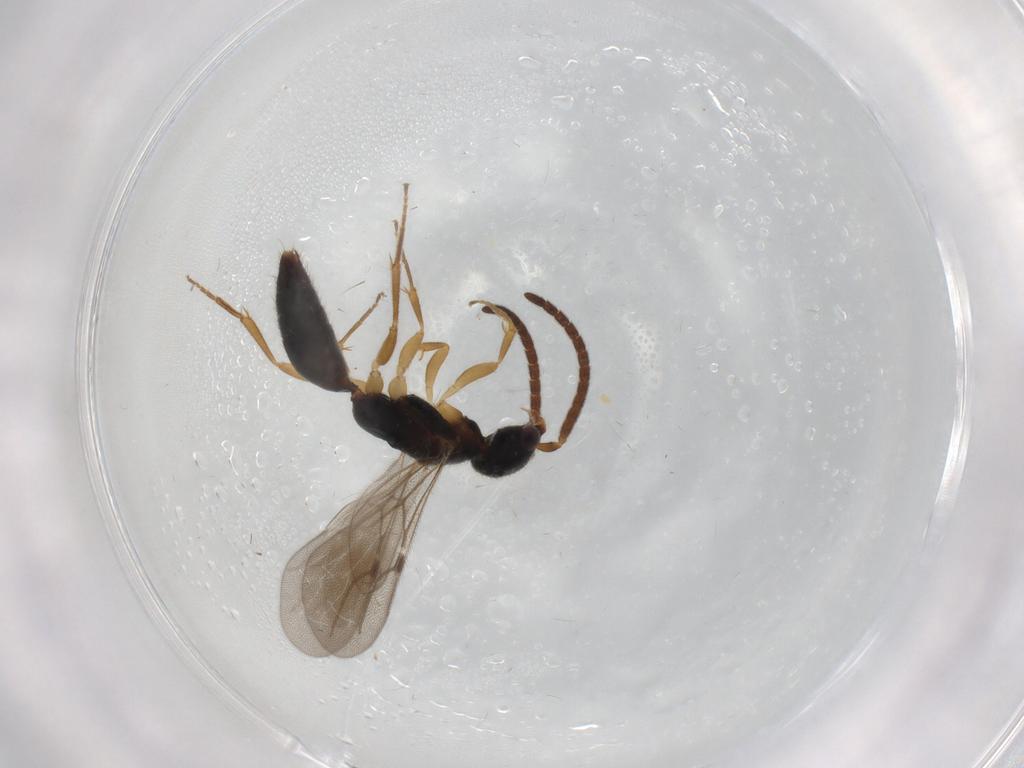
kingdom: Animalia
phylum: Arthropoda
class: Insecta
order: Hymenoptera
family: Bethylidae
